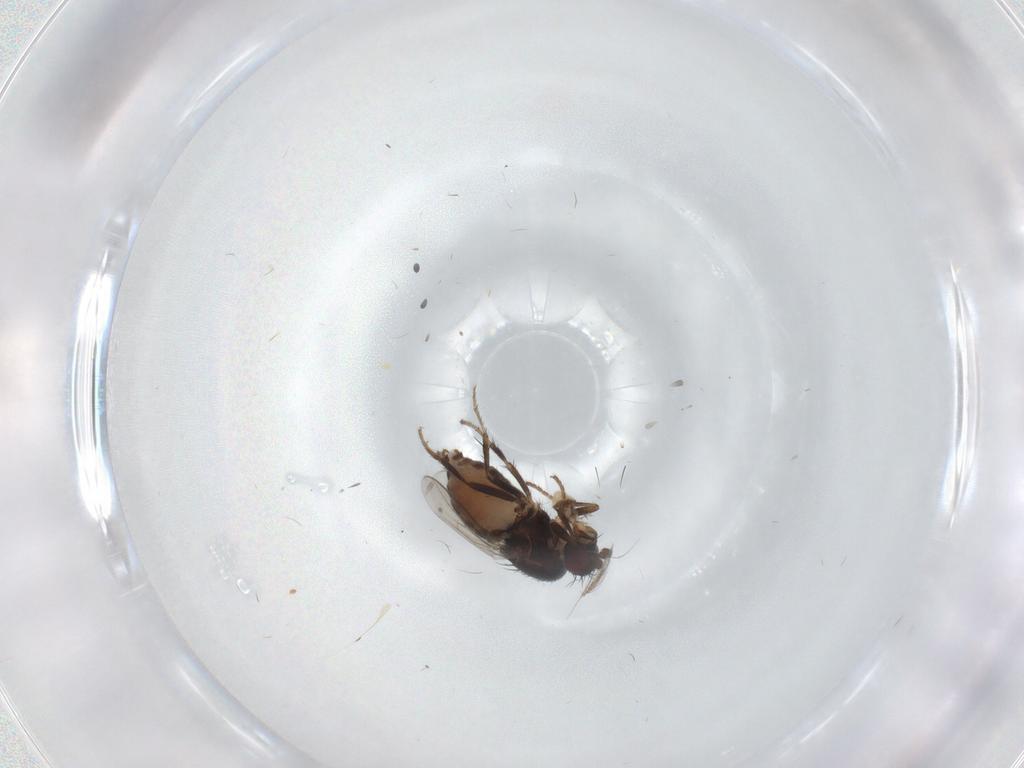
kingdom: Animalia
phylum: Arthropoda
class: Insecta
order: Diptera
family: Sphaeroceridae
